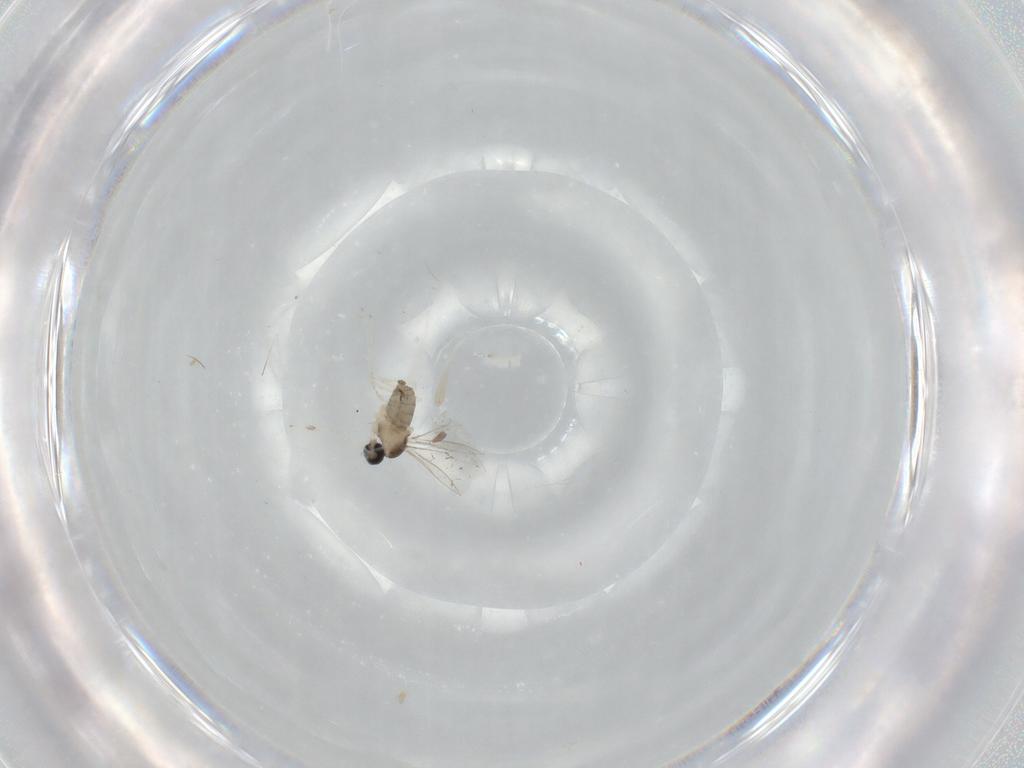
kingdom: Animalia
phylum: Arthropoda
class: Insecta
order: Diptera
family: Cecidomyiidae
